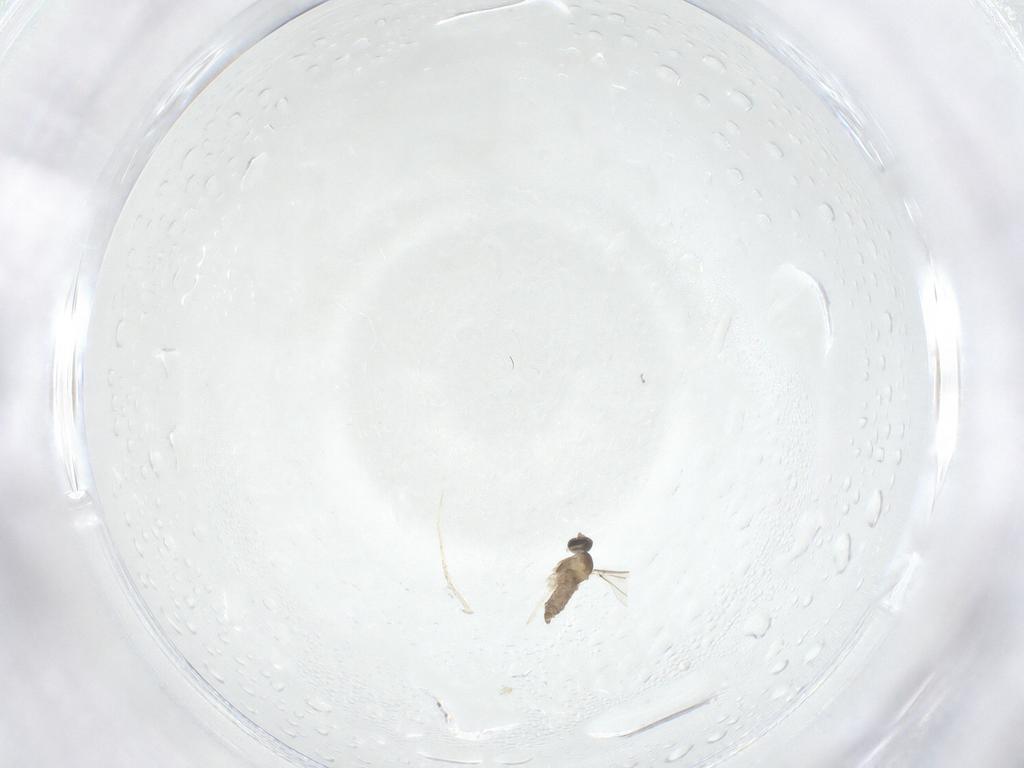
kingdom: Animalia
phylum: Arthropoda
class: Insecta
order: Diptera
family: Cecidomyiidae
